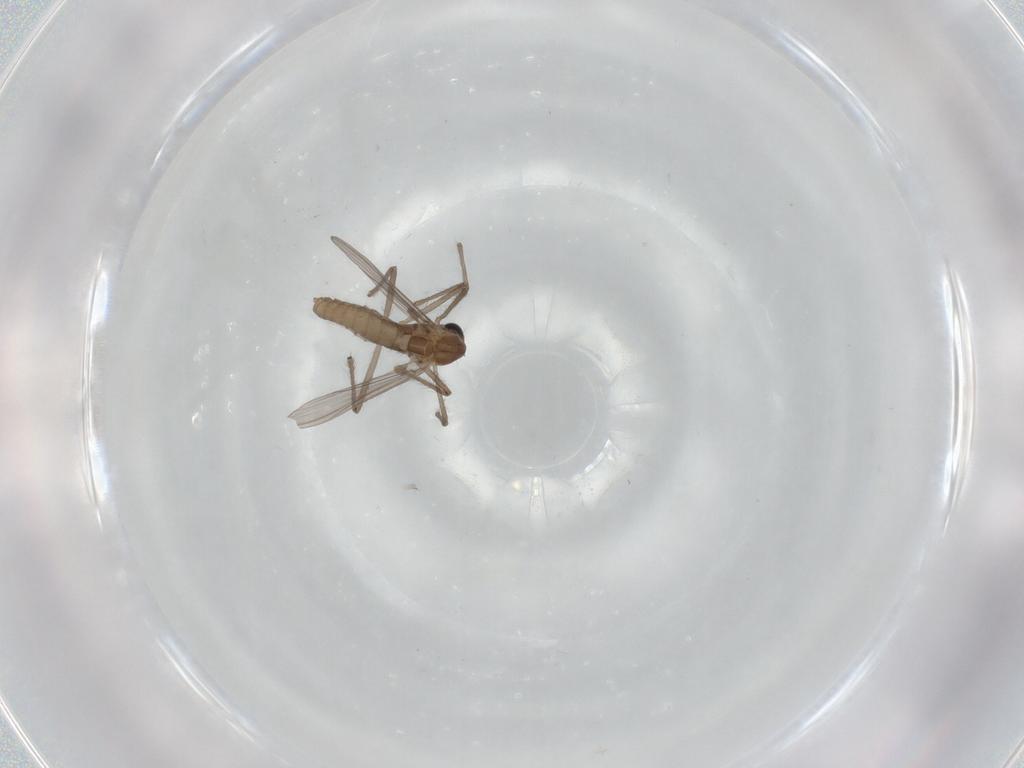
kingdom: Animalia
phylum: Arthropoda
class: Insecta
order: Diptera
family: Chironomidae
